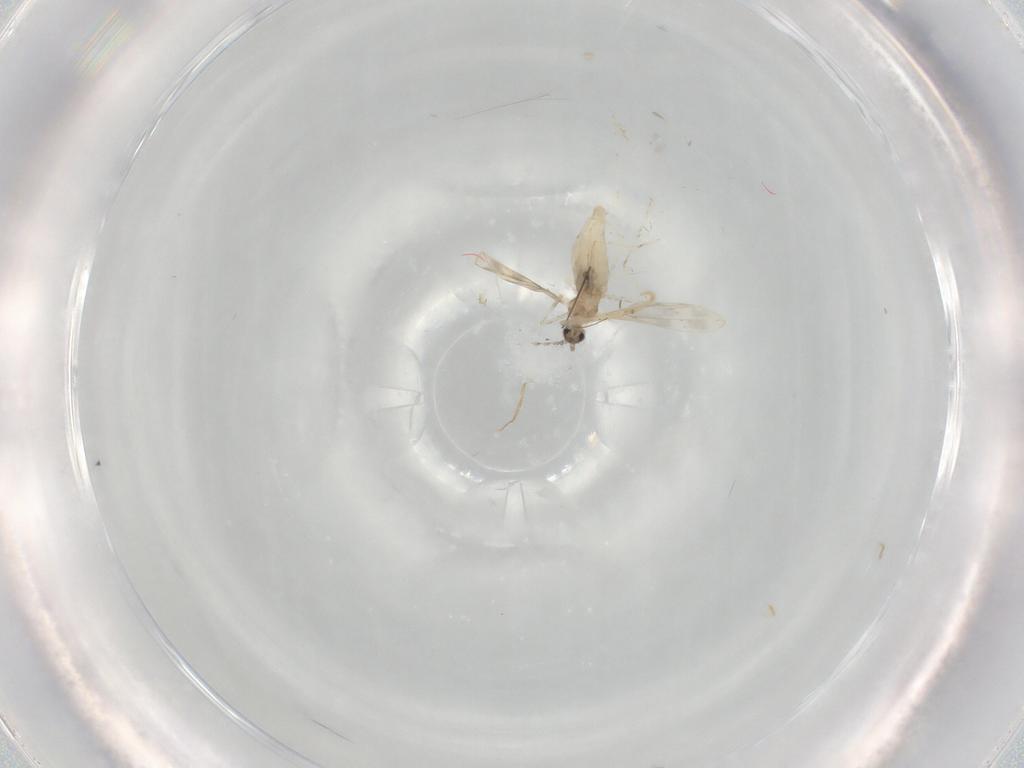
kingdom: Animalia
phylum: Arthropoda
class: Insecta
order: Diptera
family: Cecidomyiidae
